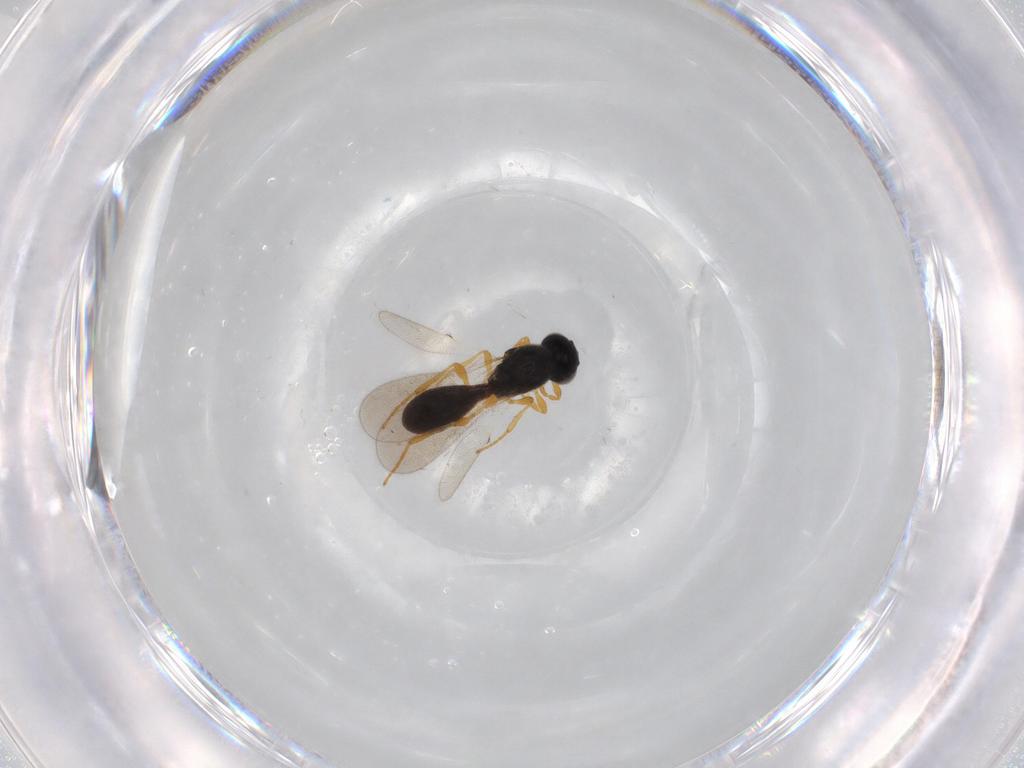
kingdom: Animalia
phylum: Arthropoda
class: Insecta
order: Hymenoptera
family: Platygastridae
